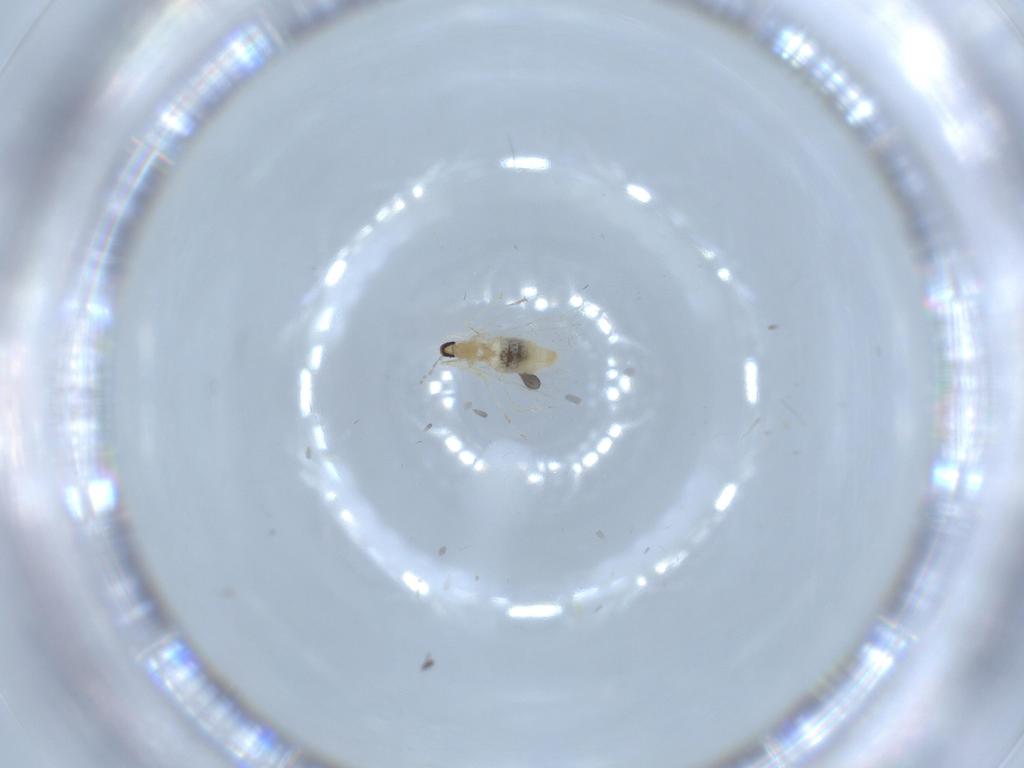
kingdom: Animalia
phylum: Arthropoda
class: Insecta
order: Diptera
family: Cecidomyiidae
